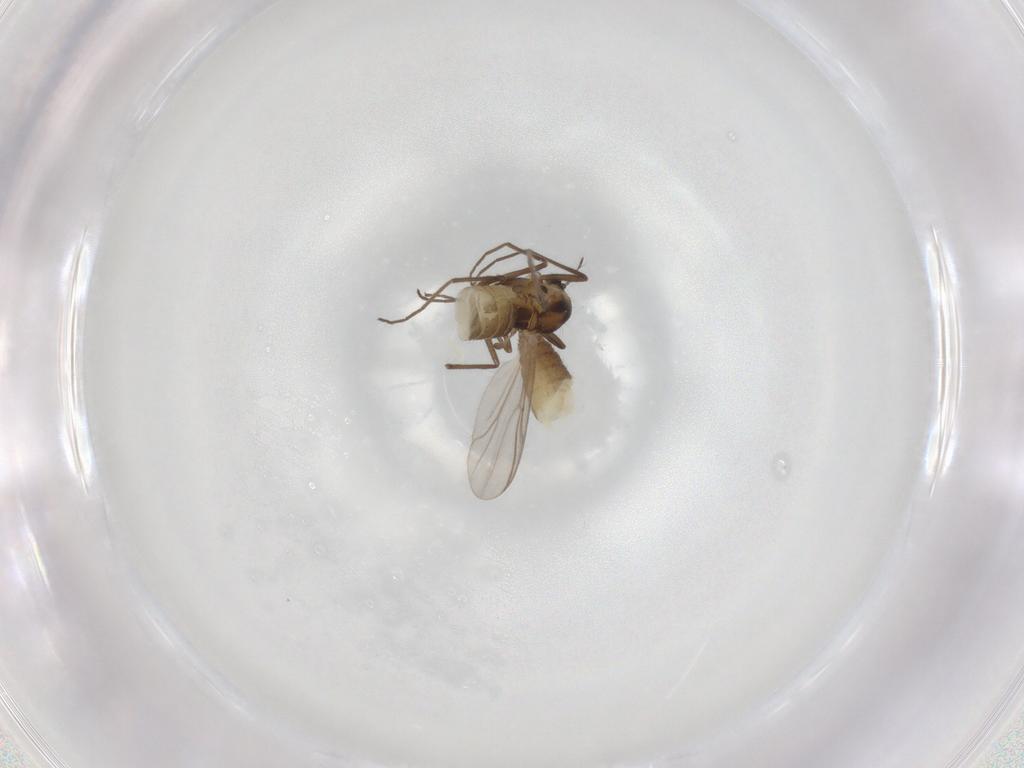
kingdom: Animalia
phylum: Arthropoda
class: Insecta
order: Diptera
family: Chironomidae
